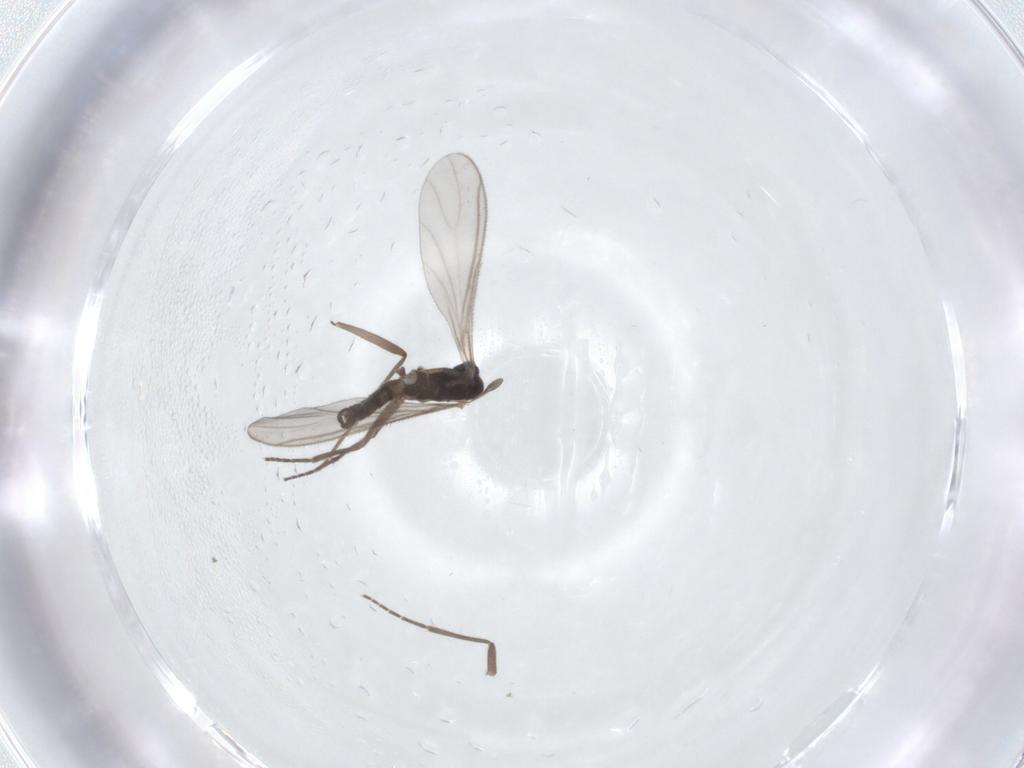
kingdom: Animalia
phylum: Arthropoda
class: Insecta
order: Diptera
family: Sciaridae
